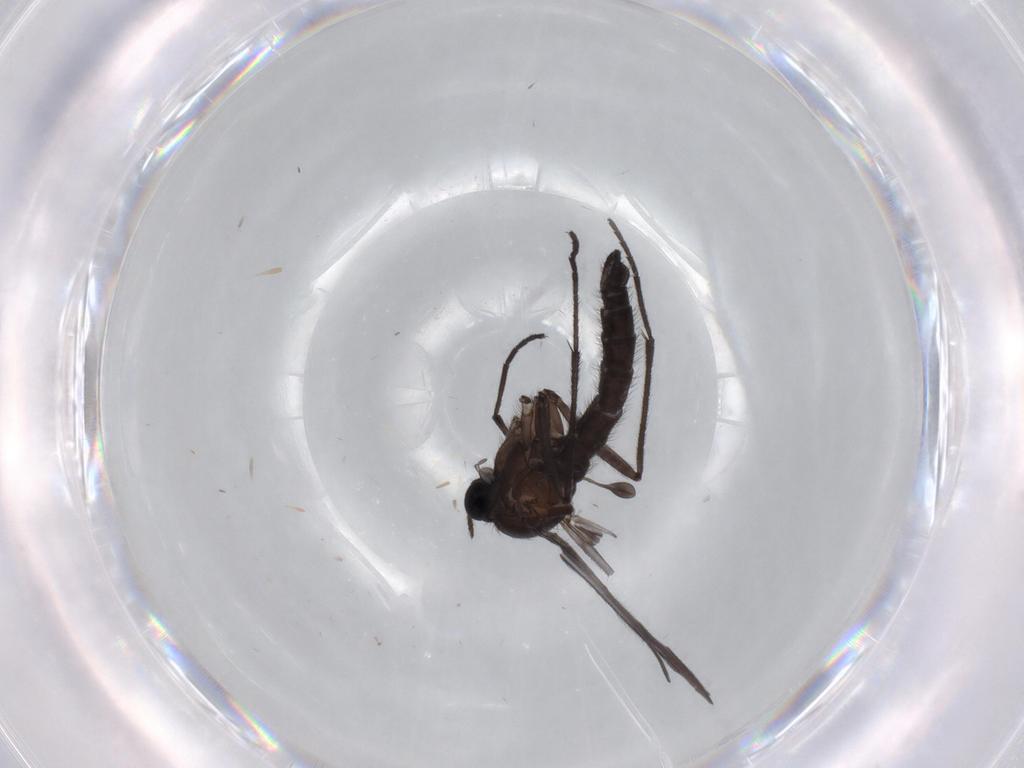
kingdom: Animalia
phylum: Arthropoda
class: Insecta
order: Diptera
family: Sciaridae
